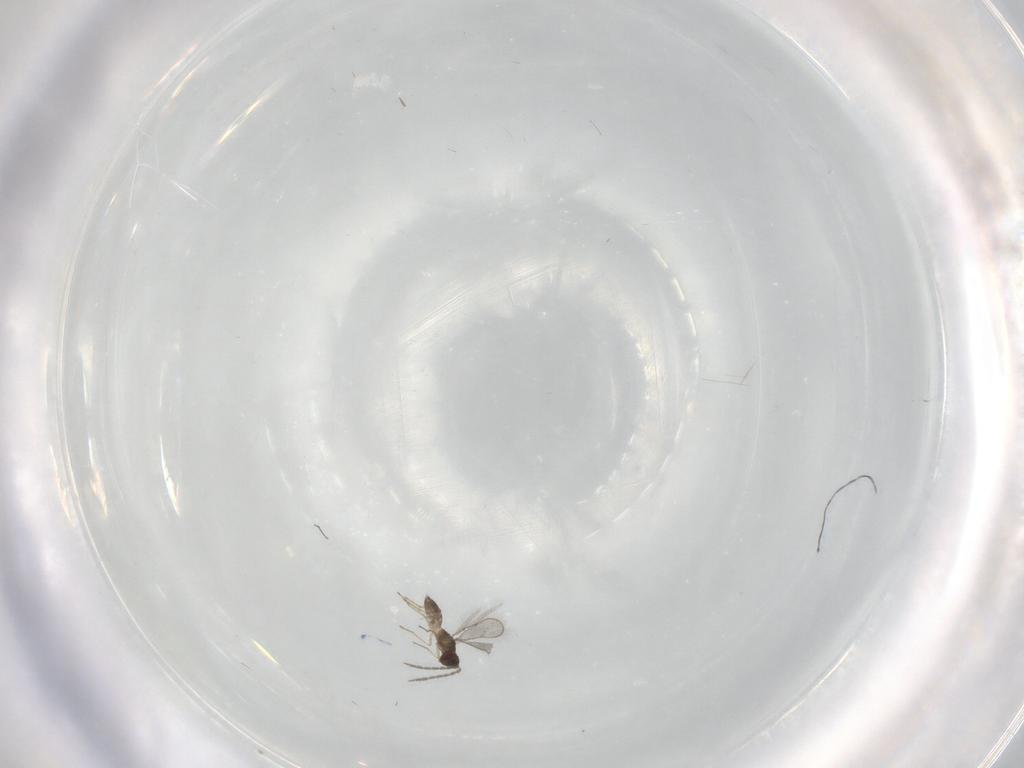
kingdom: Animalia
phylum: Arthropoda
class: Insecta
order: Hymenoptera
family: Eulophidae
